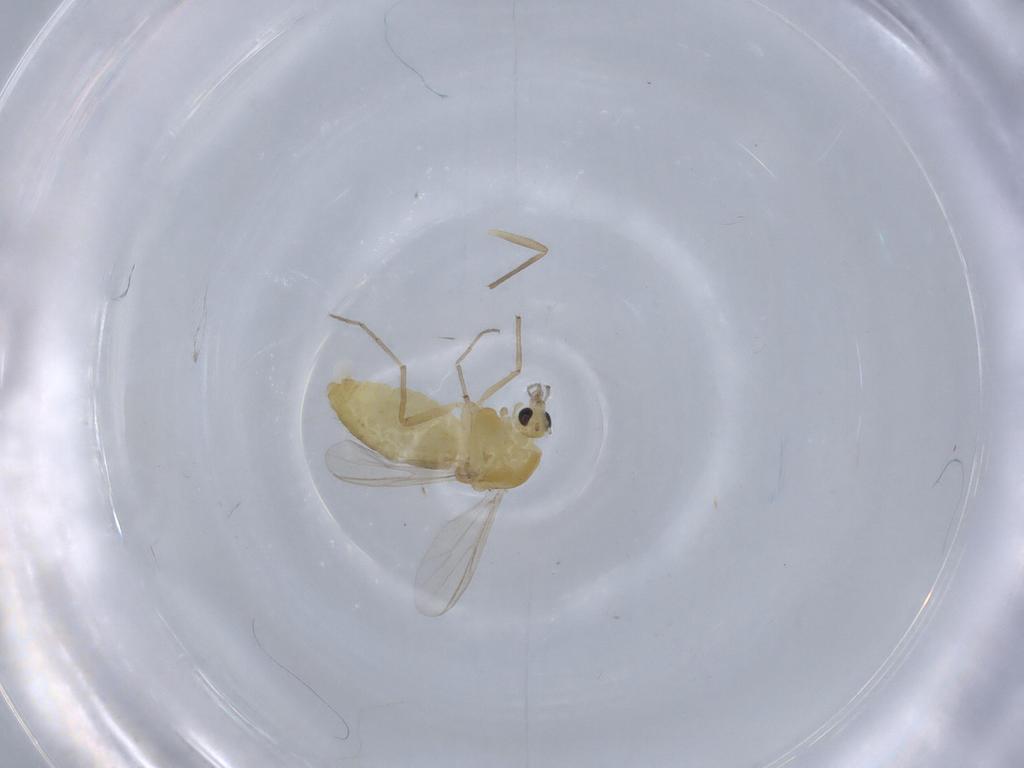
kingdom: Animalia
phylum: Arthropoda
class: Insecta
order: Diptera
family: Chironomidae
